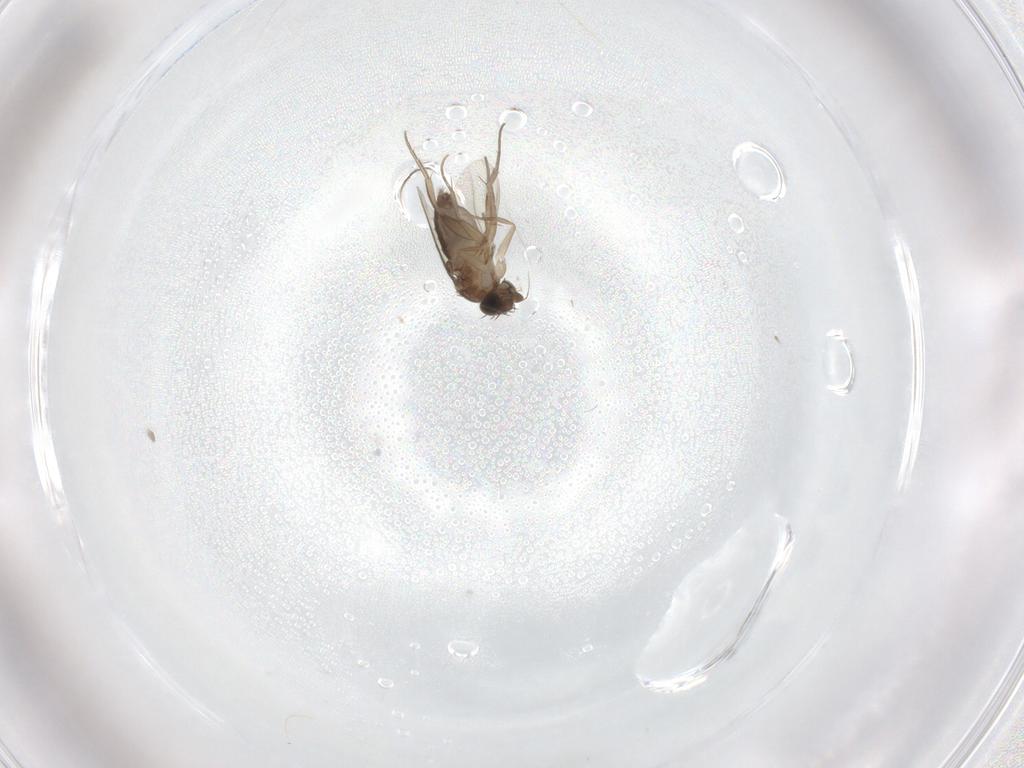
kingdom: Animalia
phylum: Arthropoda
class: Insecta
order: Diptera
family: Phoridae
